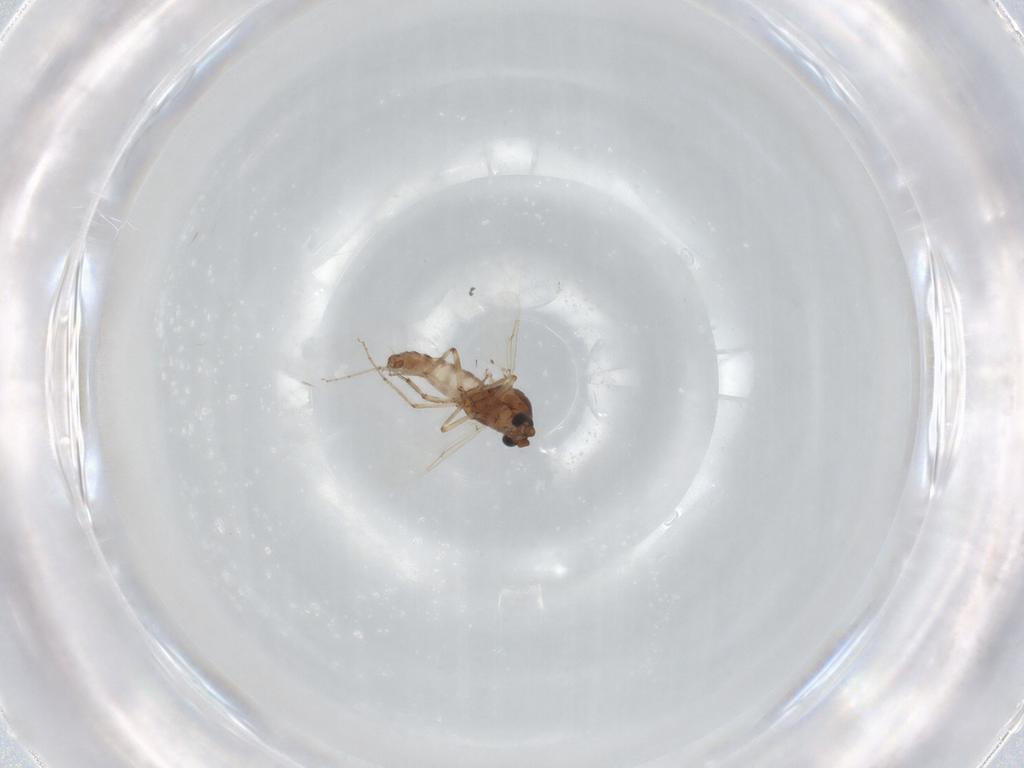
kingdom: Animalia
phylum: Arthropoda
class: Insecta
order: Diptera
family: Ceratopogonidae
